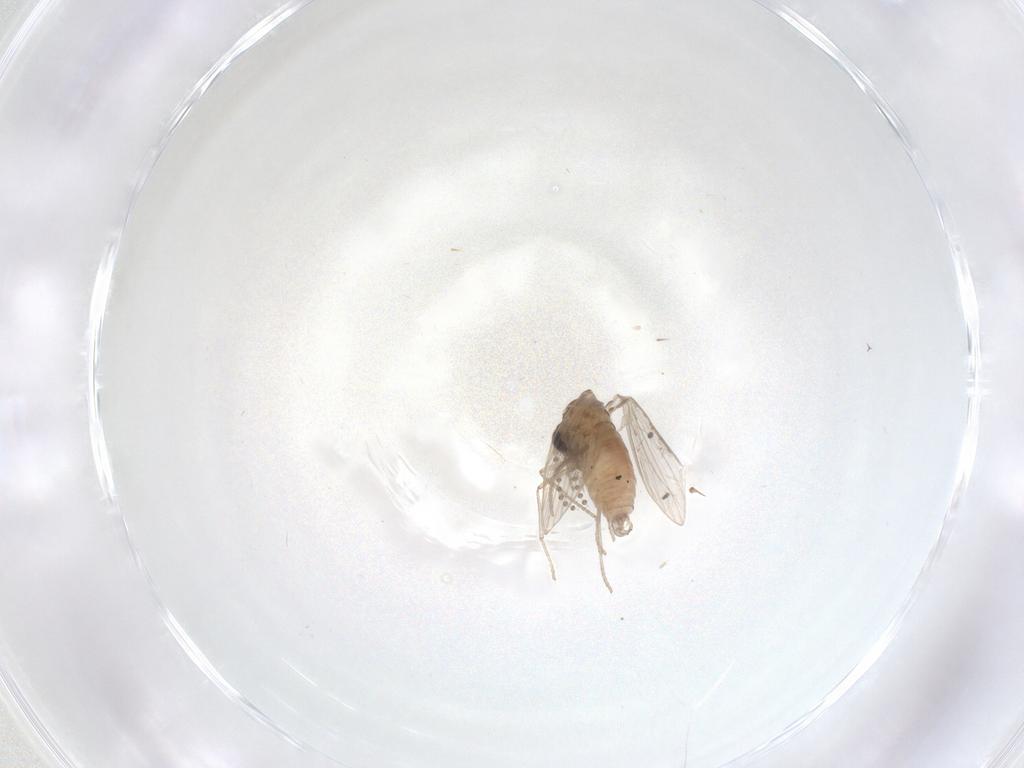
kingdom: Animalia
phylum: Arthropoda
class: Insecta
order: Diptera
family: Psychodidae
